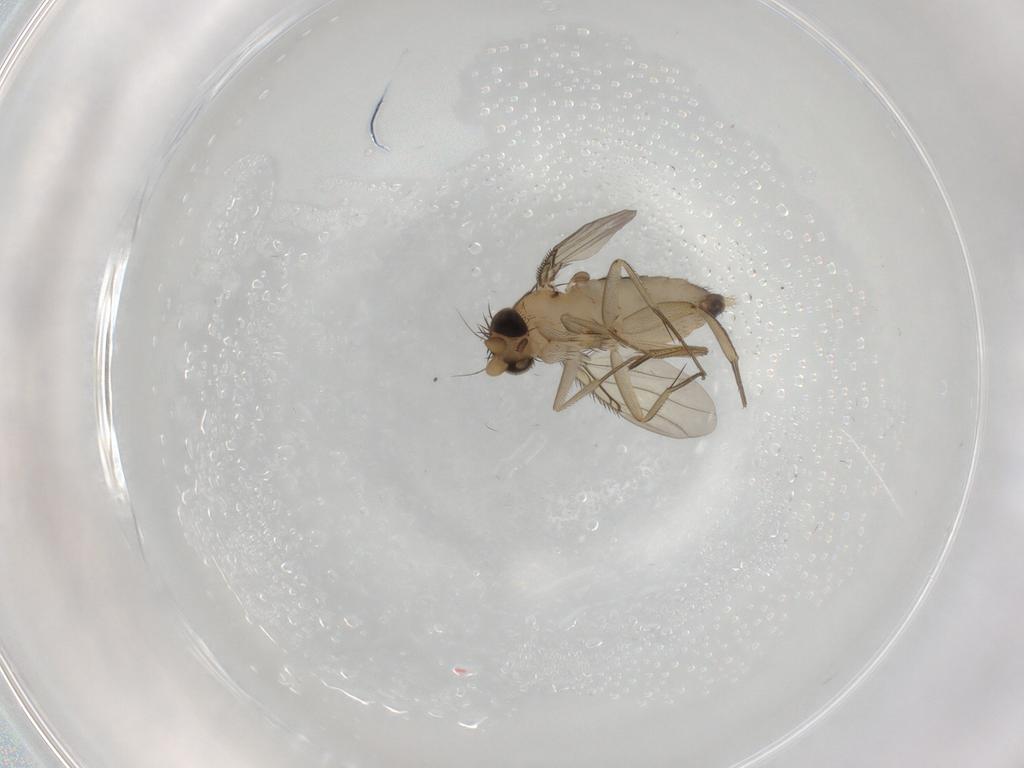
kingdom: Animalia
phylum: Arthropoda
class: Insecta
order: Diptera
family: Phoridae
